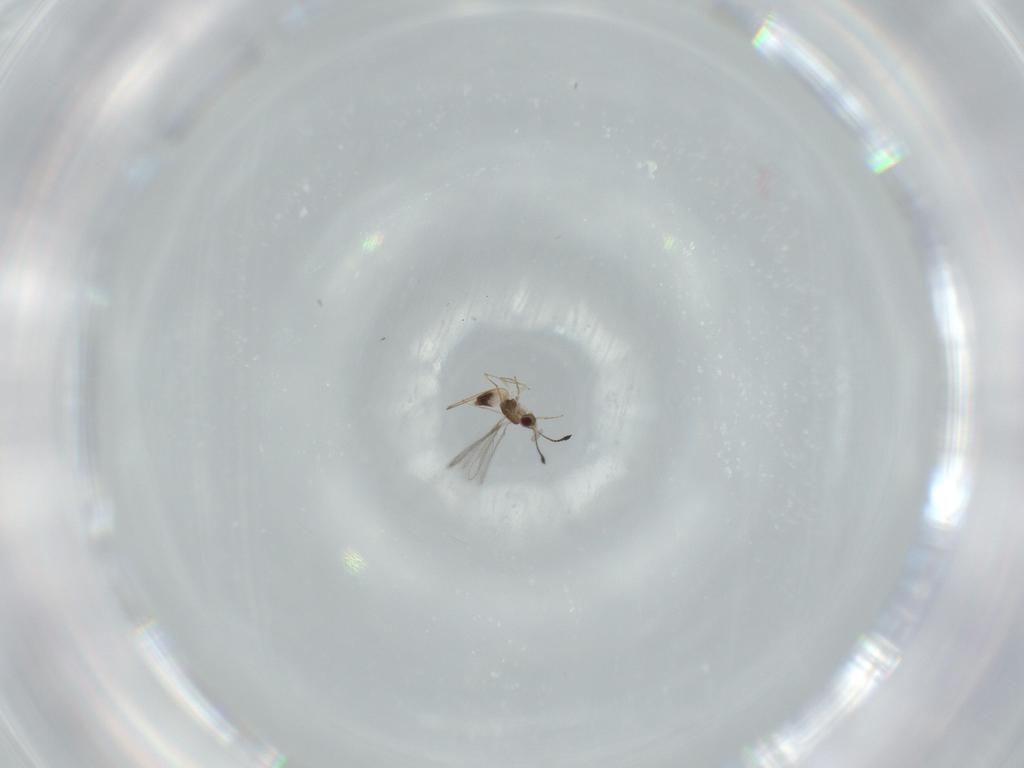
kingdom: Animalia
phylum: Arthropoda
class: Insecta
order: Hymenoptera
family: Mymaridae
